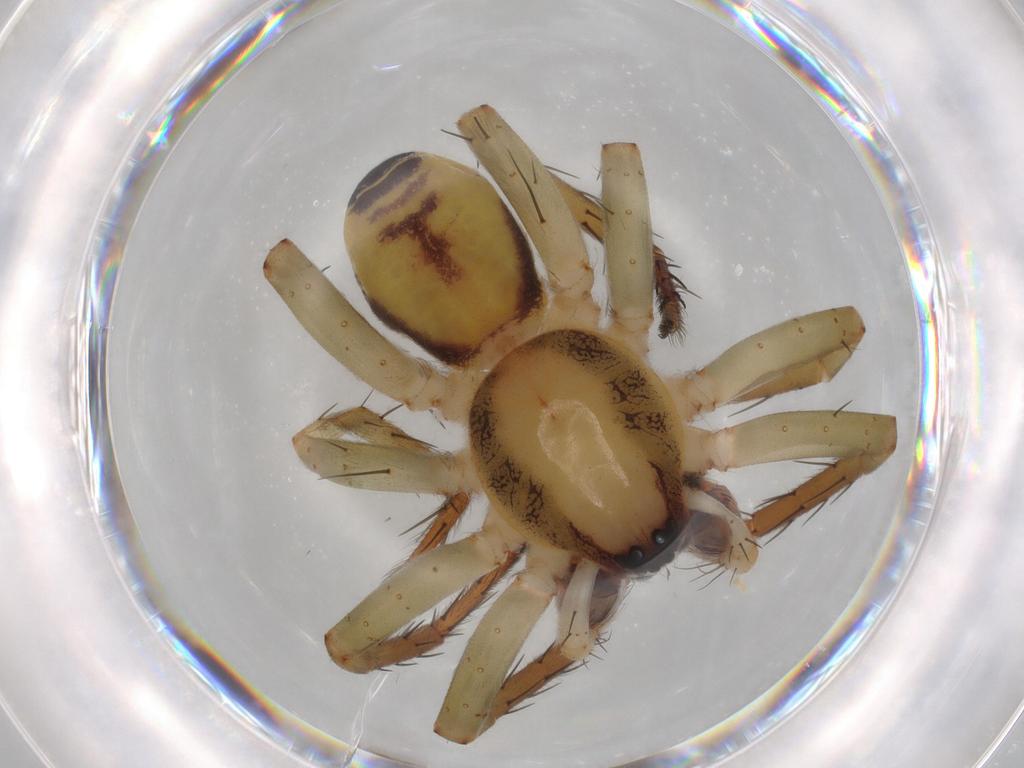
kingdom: Animalia
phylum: Arthropoda
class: Arachnida
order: Araneae
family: Anyphaenidae
